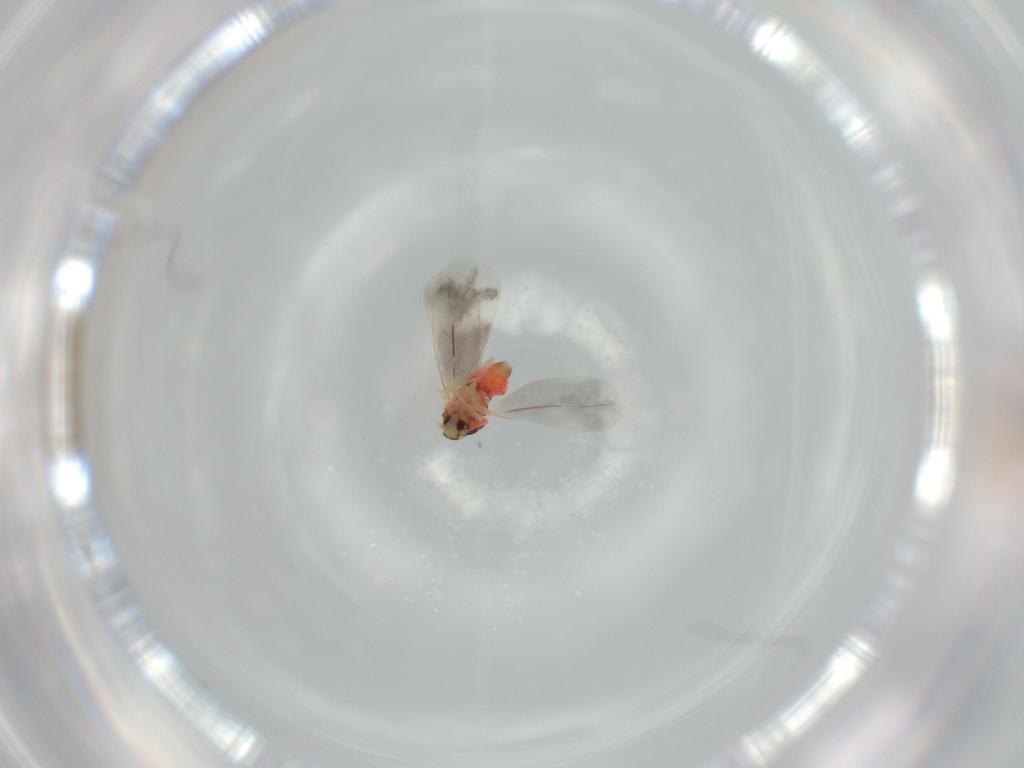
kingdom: Animalia
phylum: Arthropoda
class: Insecta
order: Hemiptera
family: Aleyrodidae
